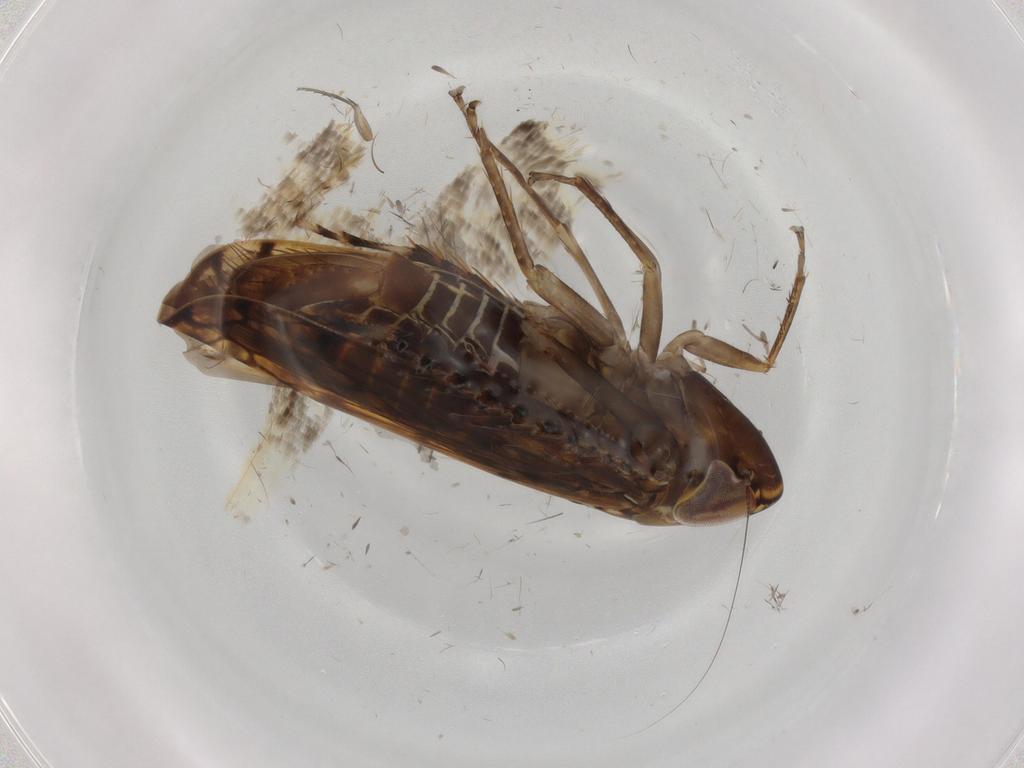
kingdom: Animalia
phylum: Arthropoda
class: Insecta
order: Hemiptera
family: Cicadellidae
